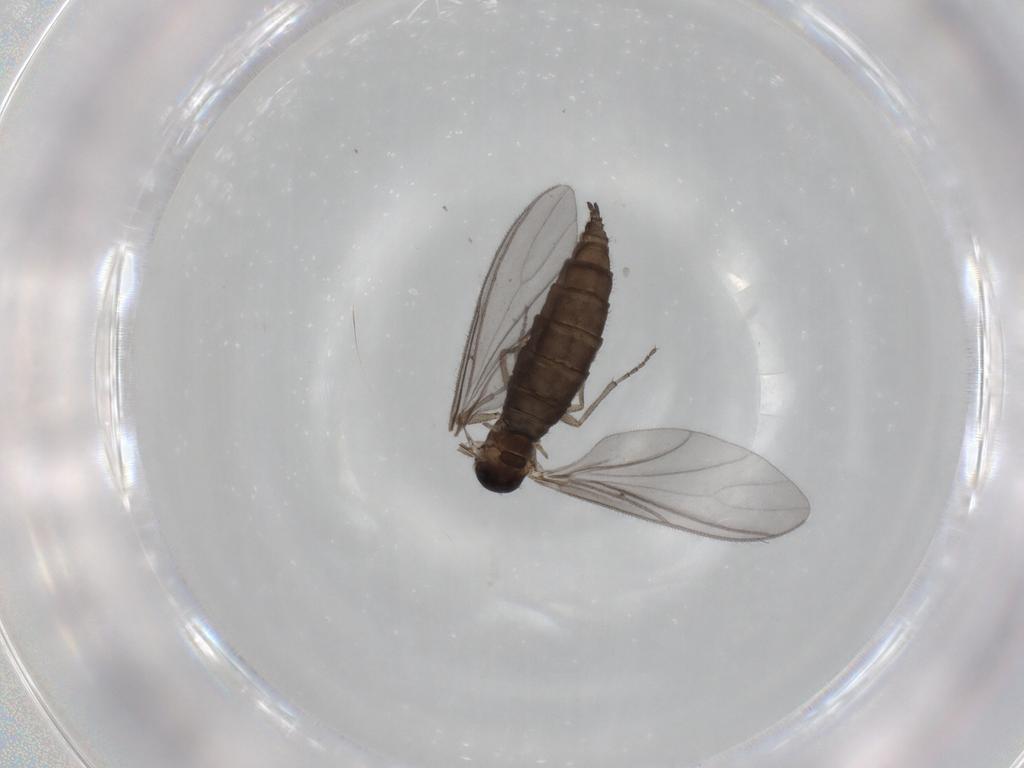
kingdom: Animalia
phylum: Arthropoda
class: Insecta
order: Diptera
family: Sciaridae
